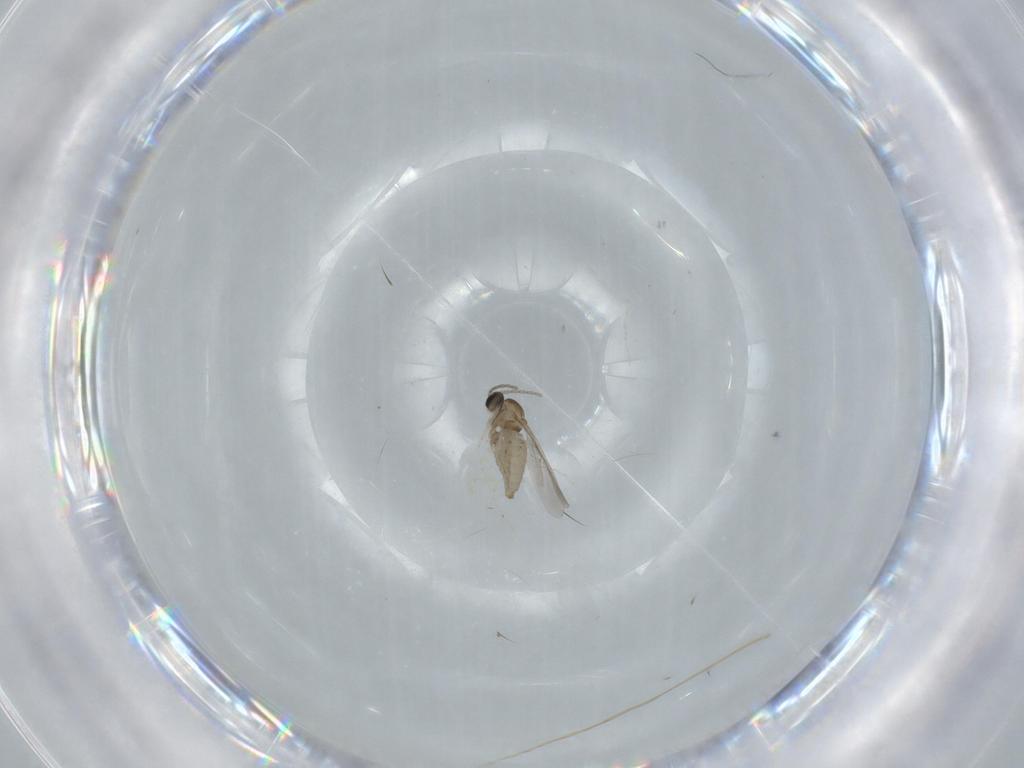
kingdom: Animalia
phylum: Arthropoda
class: Insecta
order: Diptera
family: Cecidomyiidae
